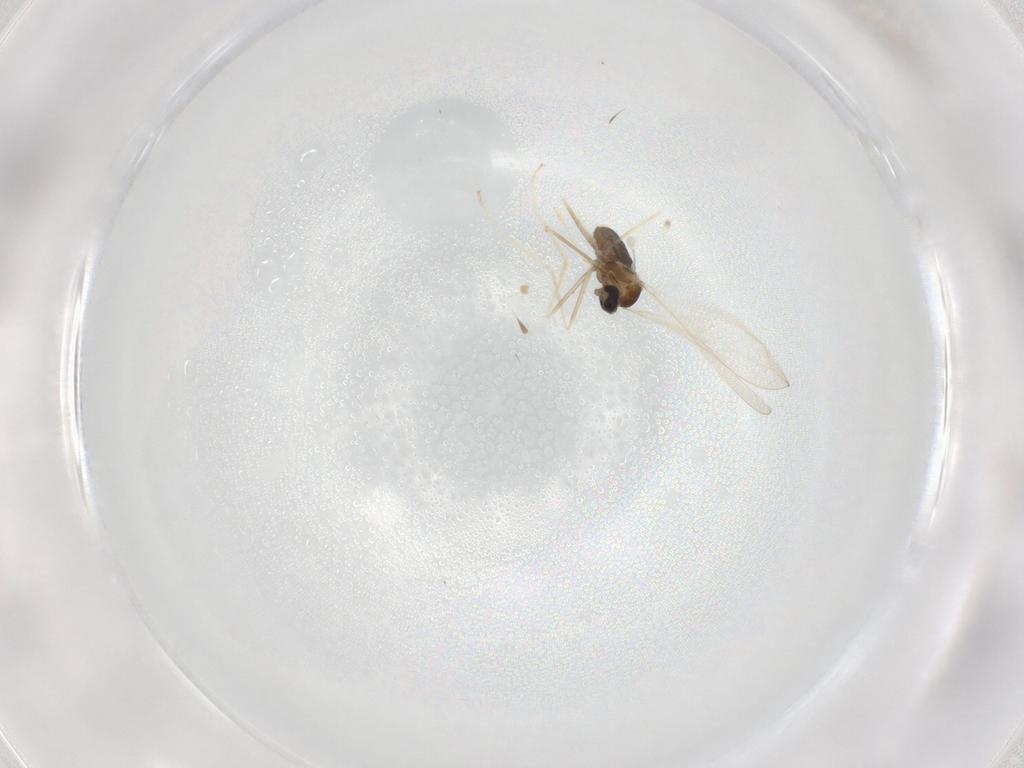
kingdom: Animalia
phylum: Arthropoda
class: Insecta
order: Diptera
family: Cecidomyiidae
